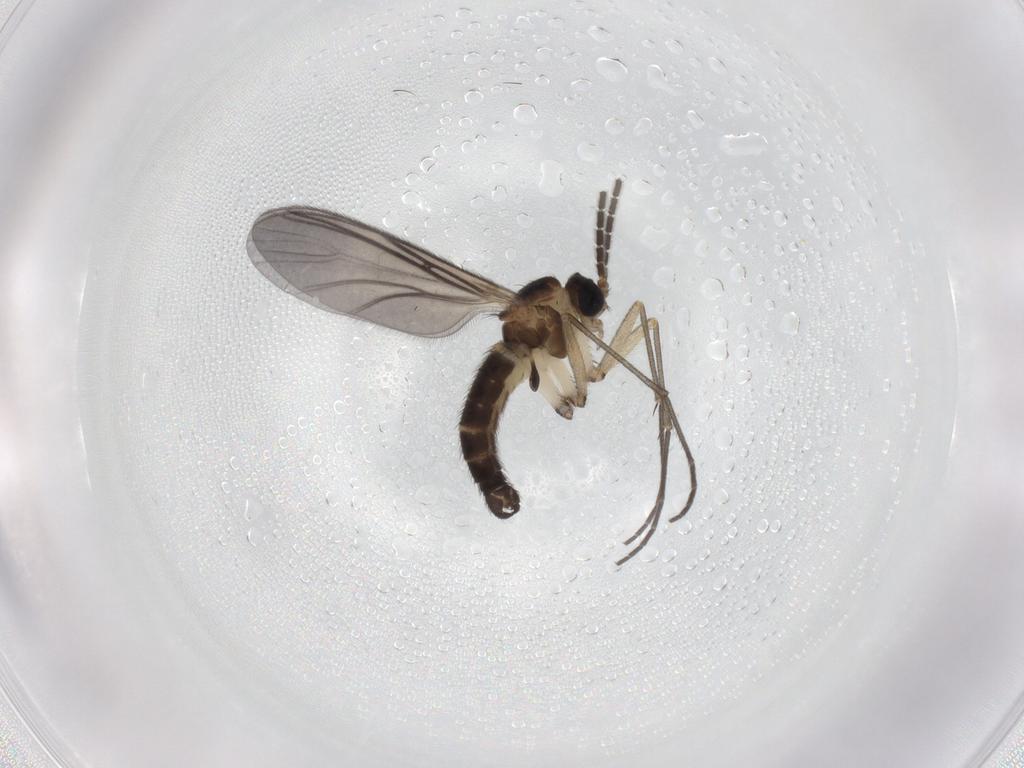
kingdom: Animalia
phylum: Arthropoda
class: Insecta
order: Diptera
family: Sciaridae
